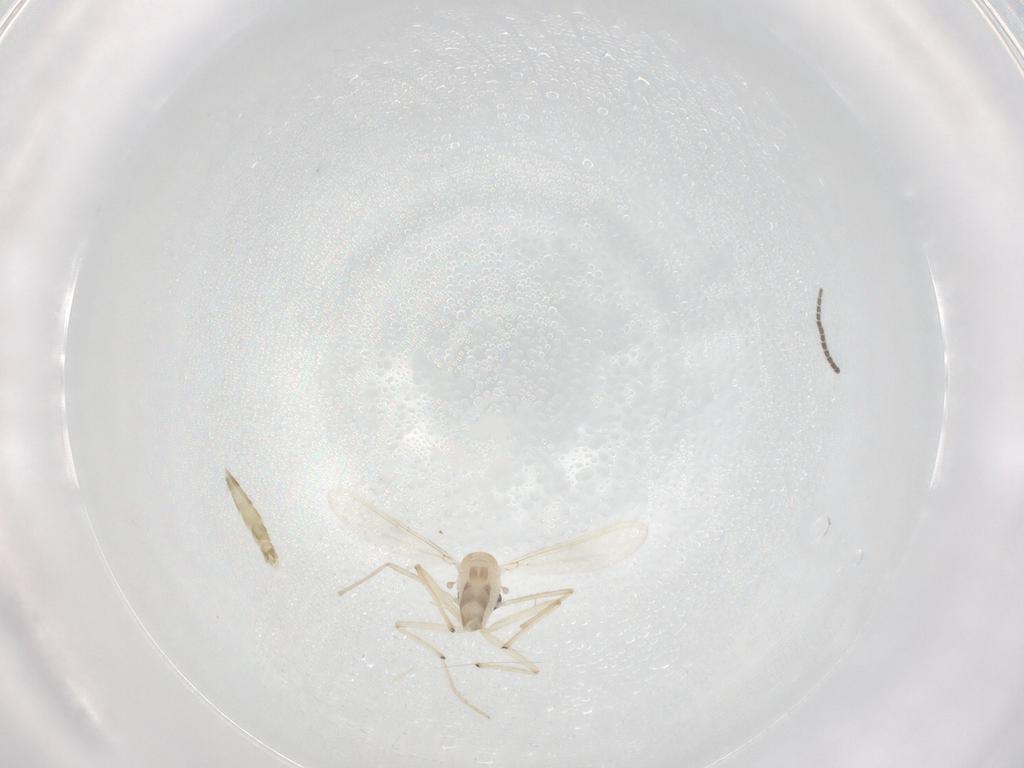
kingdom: Animalia
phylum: Arthropoda
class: Insecta
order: Diptera
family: Chironomidae
